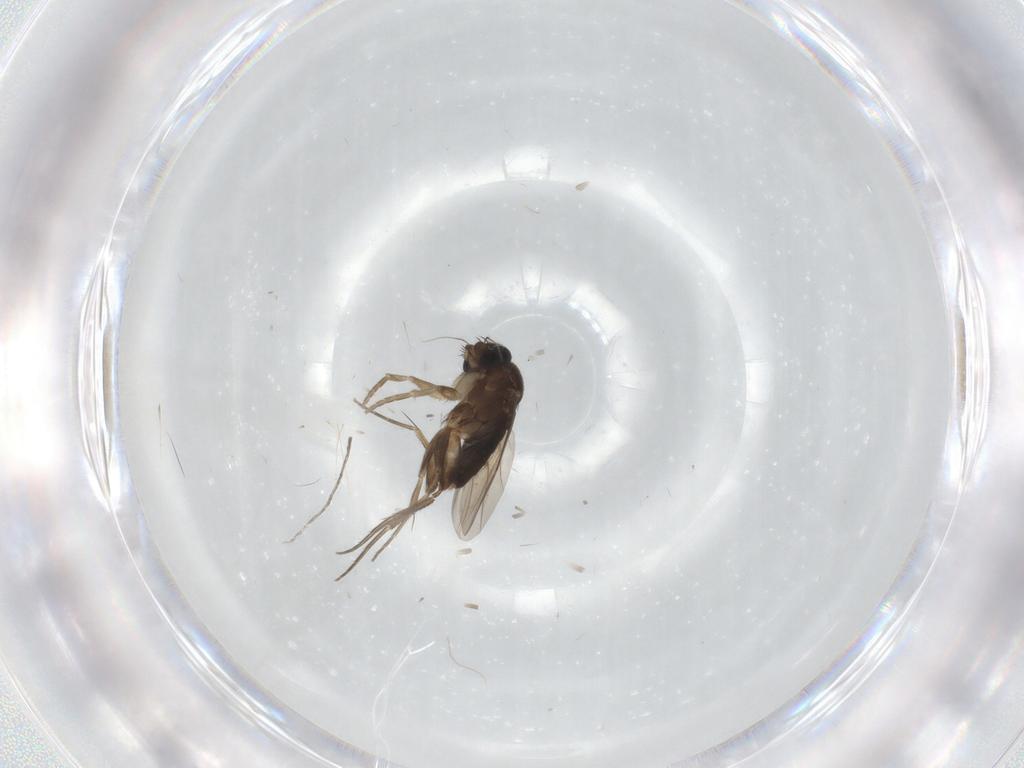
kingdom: Animalia
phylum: Arthropoda
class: Insecta
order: Diptera
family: Phoridae
